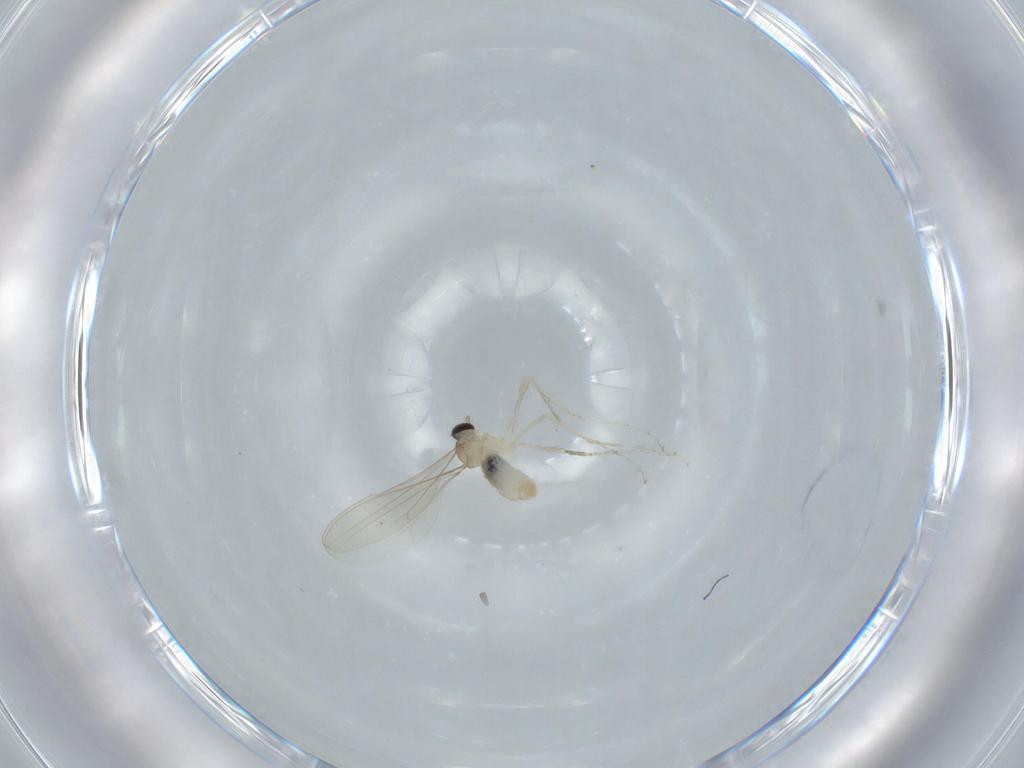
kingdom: Animalia
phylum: Arthropoda
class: Insecta
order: Diptera
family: Cecidomyiidae
